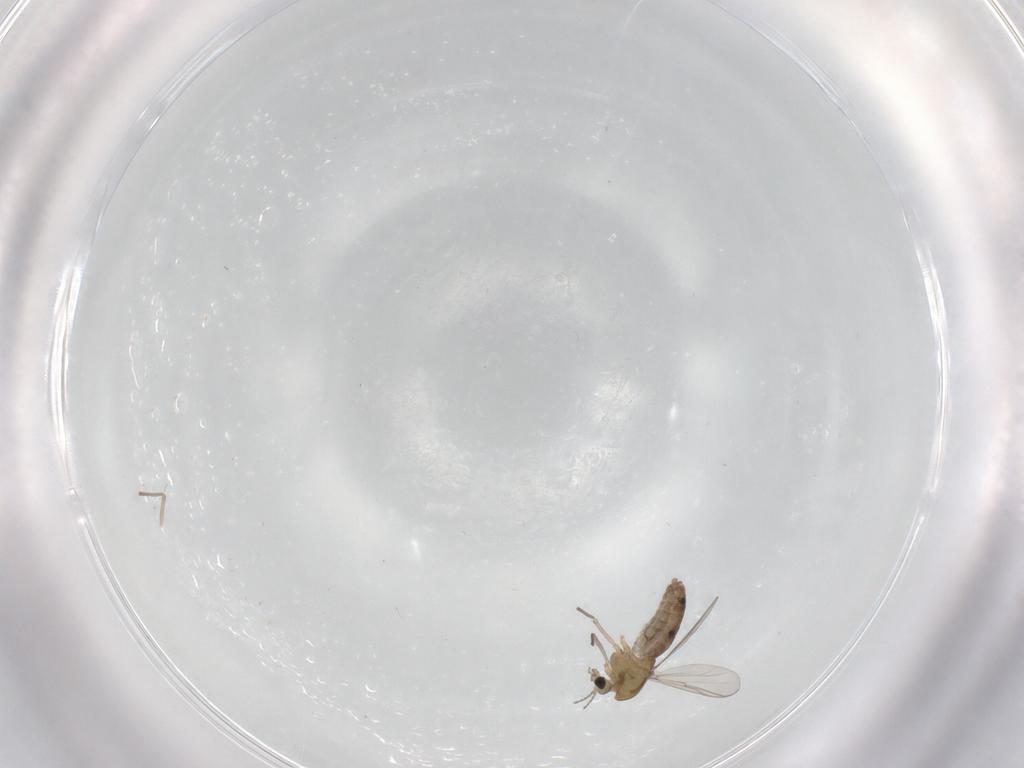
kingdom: Animalia
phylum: Arthropoda
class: Insecta
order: Diptera
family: Chironomidae
